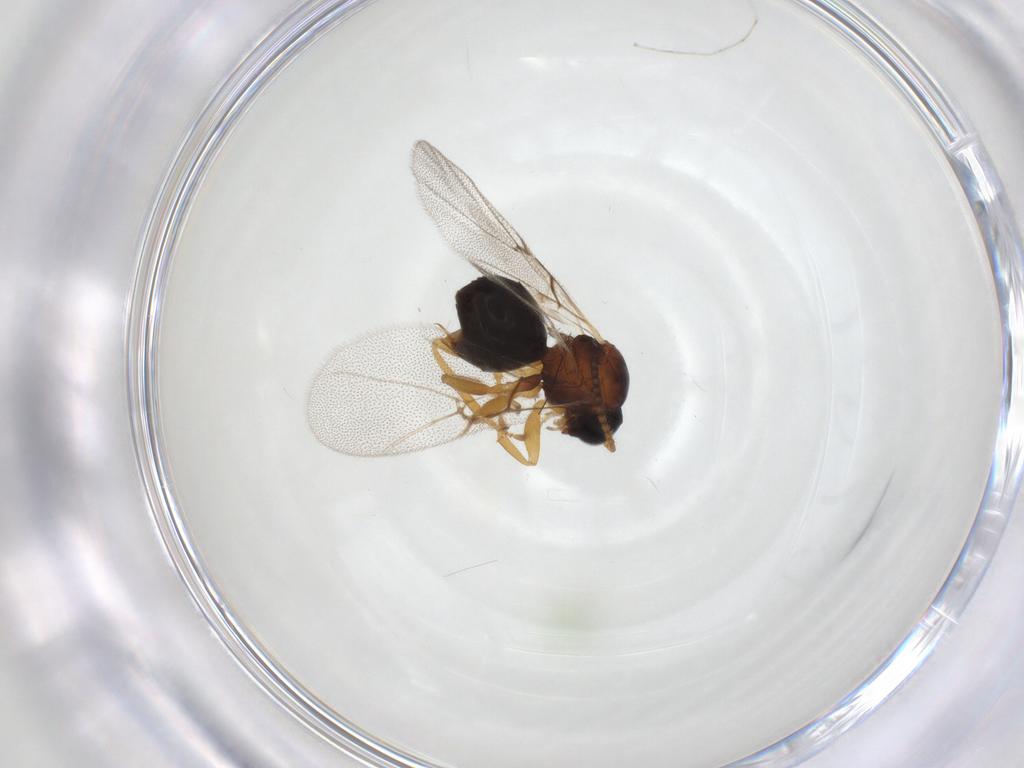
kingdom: Animalia
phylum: Arthropoda
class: Insecta
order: Hymenoptera
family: Cynipidae
